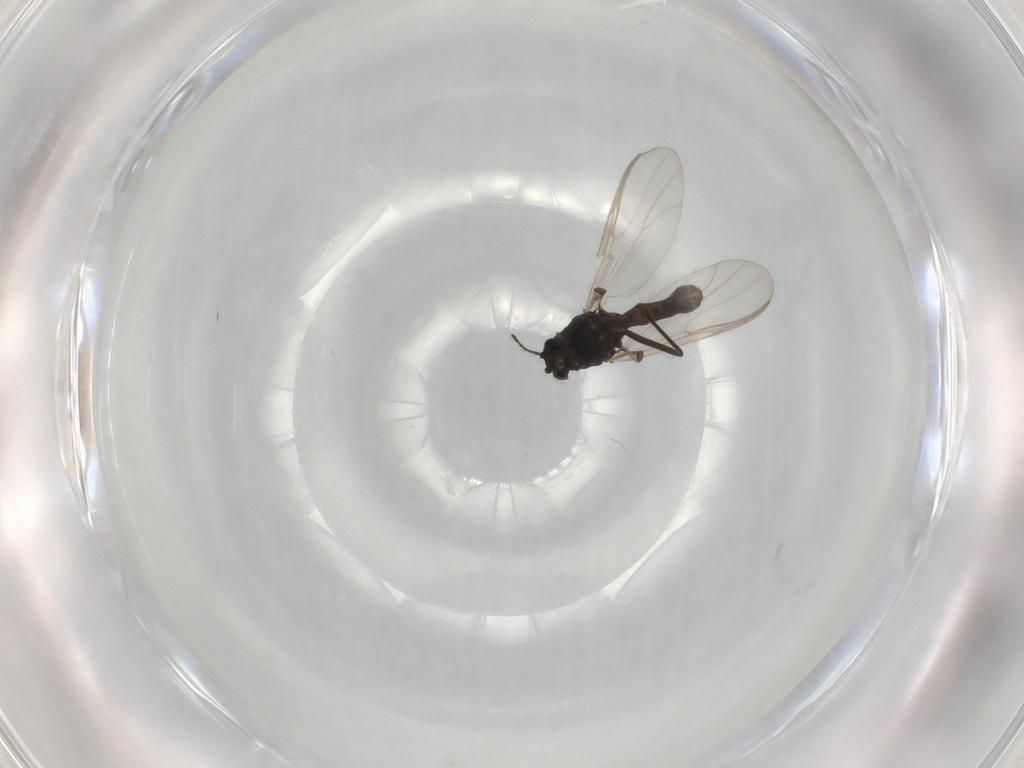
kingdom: Animalia
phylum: Arthropoda
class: Insecta
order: Diptera
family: Chironomidae
